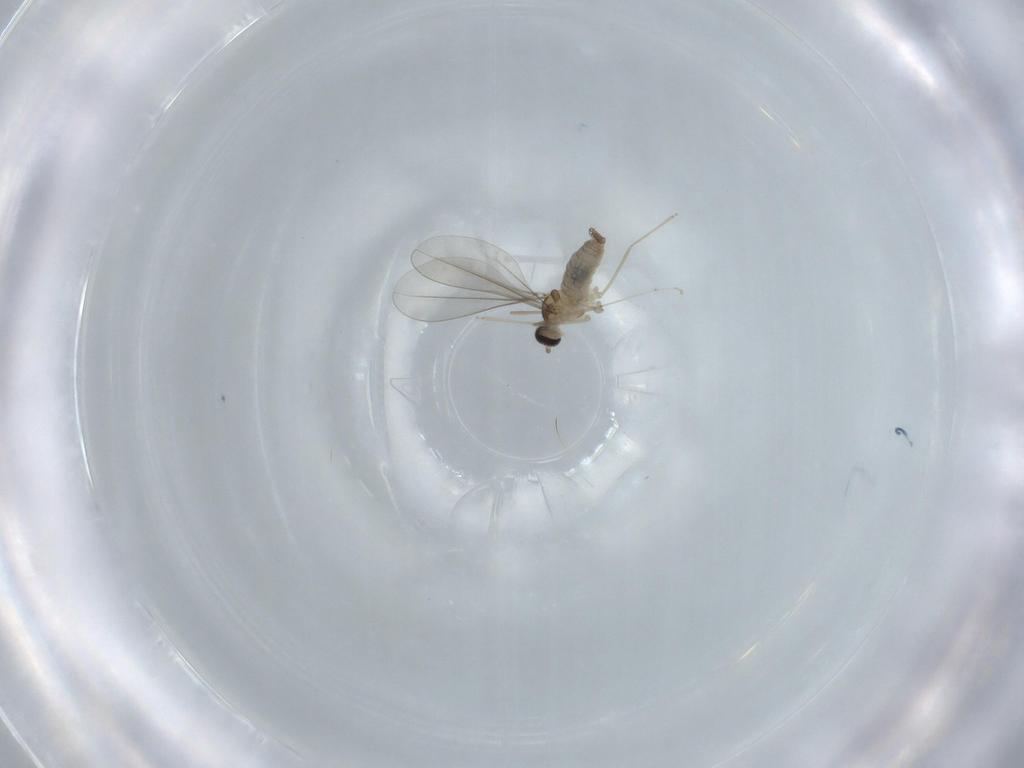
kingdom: Animalia
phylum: Arthropoda
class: Insecta
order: Diptera
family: Cecidomyiidae
